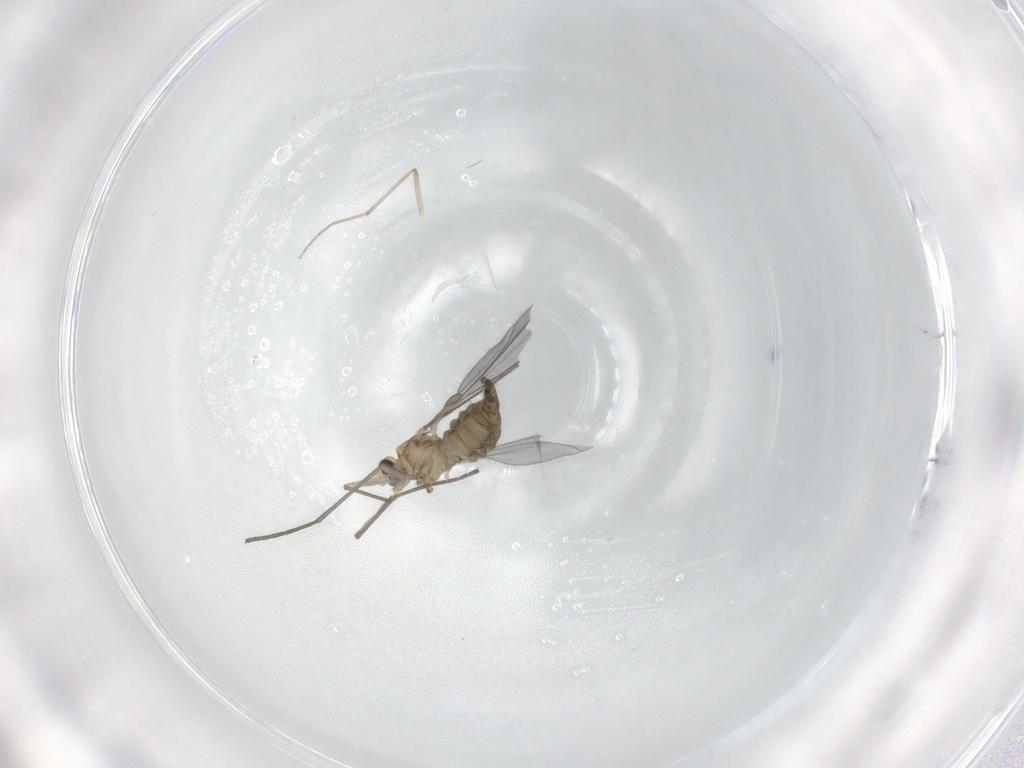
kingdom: Animalia
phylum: Arthropoda
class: Insecta
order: Diptera
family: Sciaridae
